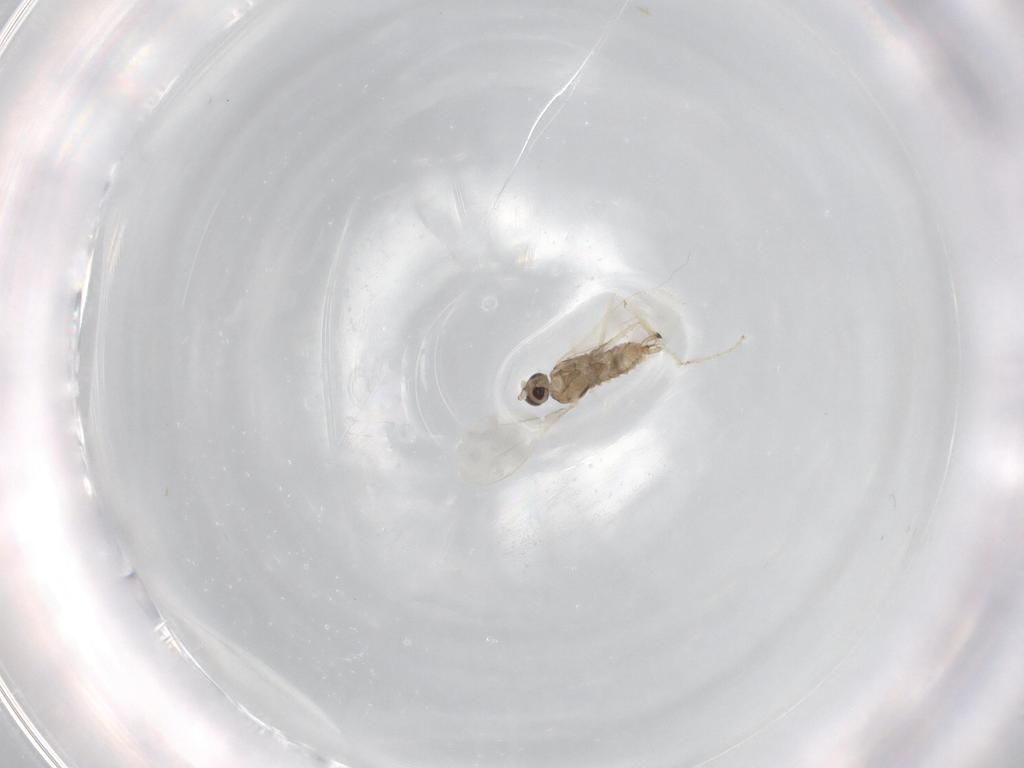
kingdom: Animalia
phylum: Arthropoda
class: Insecta
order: Diptera
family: Cecidomyiidae
